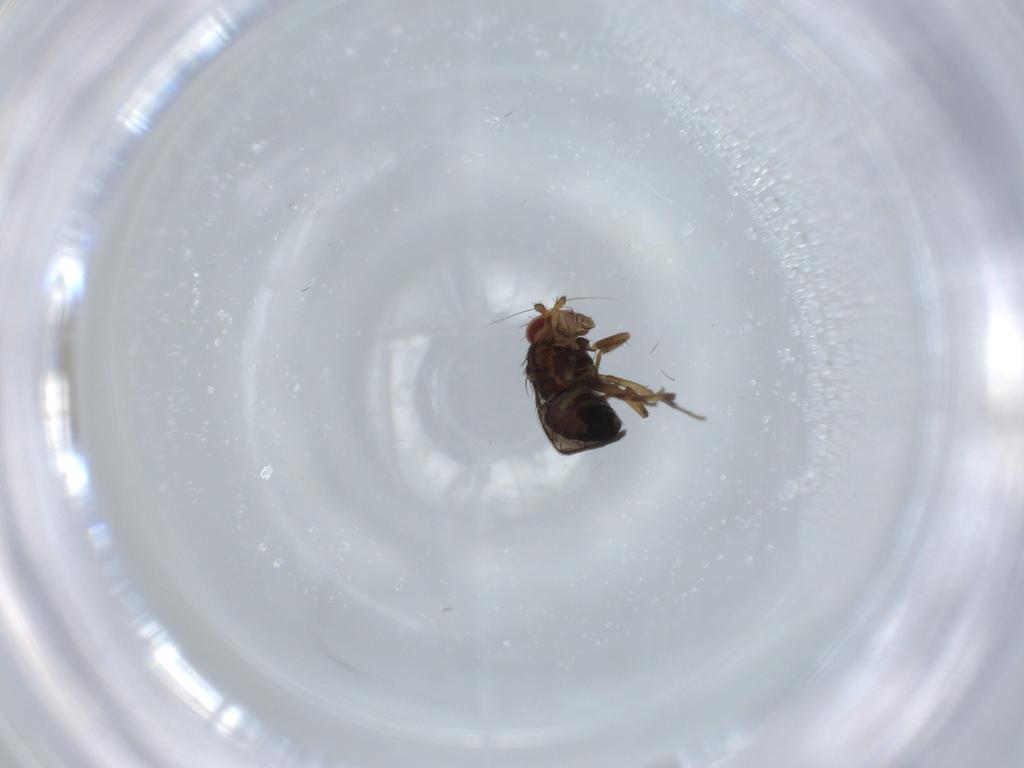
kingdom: Animalia
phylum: Arthropoda
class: Insecta
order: Diptera
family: Sphaeroceridae
